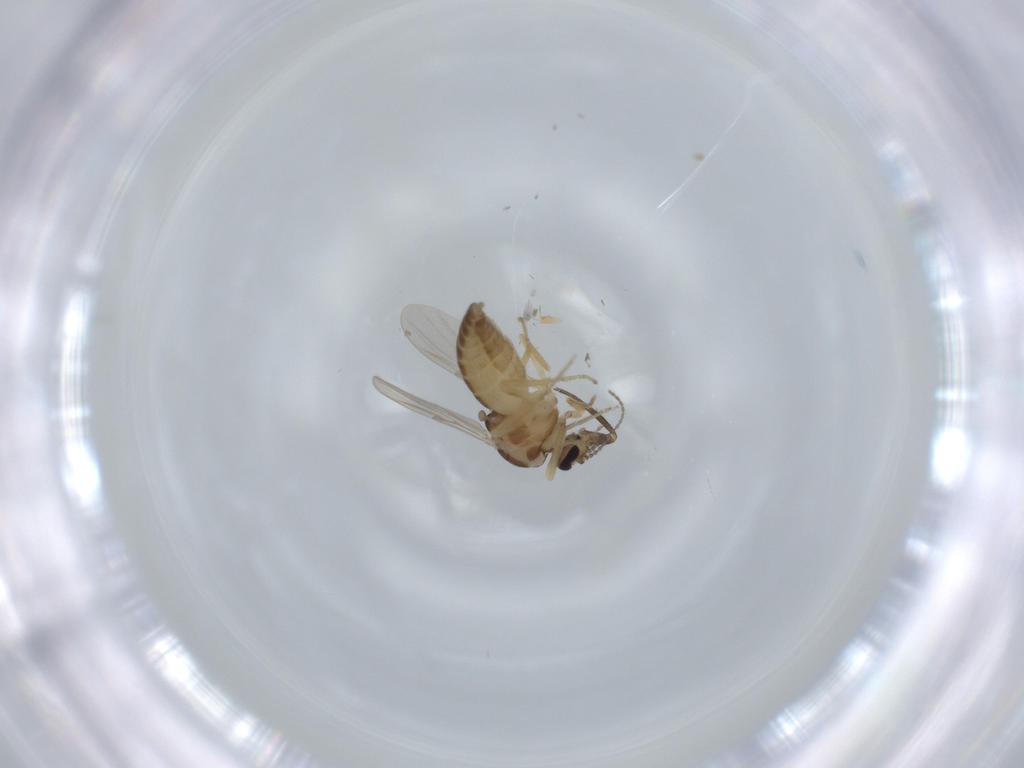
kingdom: Animalia
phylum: Arthropoda
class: Insecta
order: Diptera
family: Ceratopogonidae
